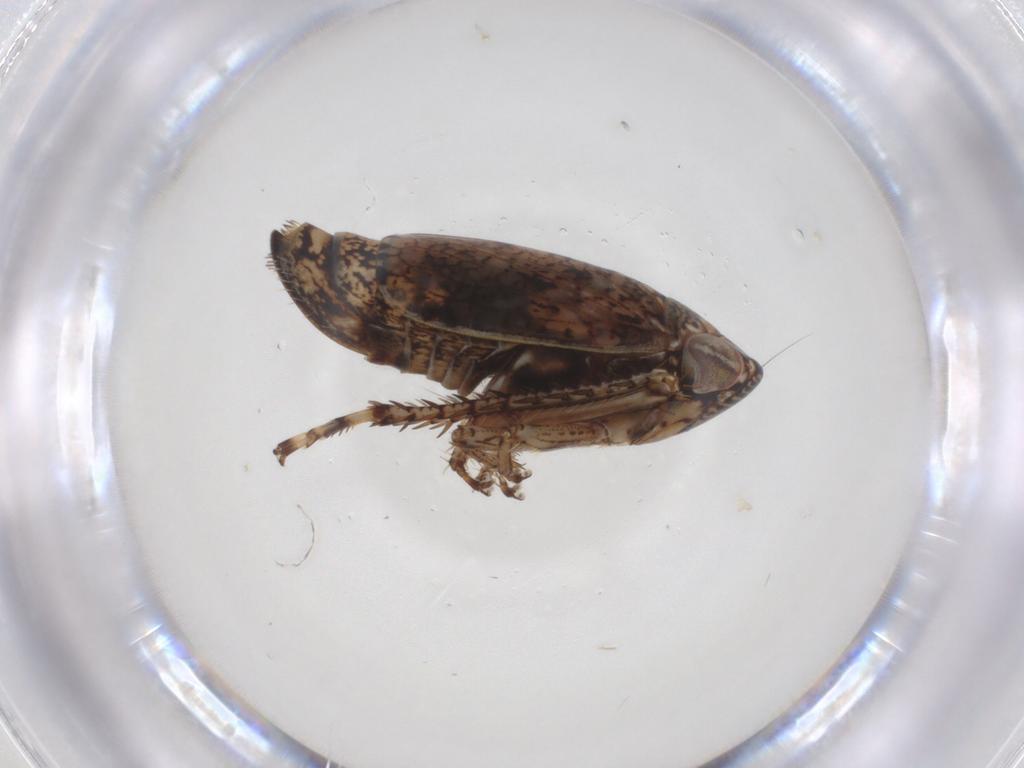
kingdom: Animalia
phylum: Arthropoda
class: Insecta
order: Hemiptera
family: Cicadellidae
